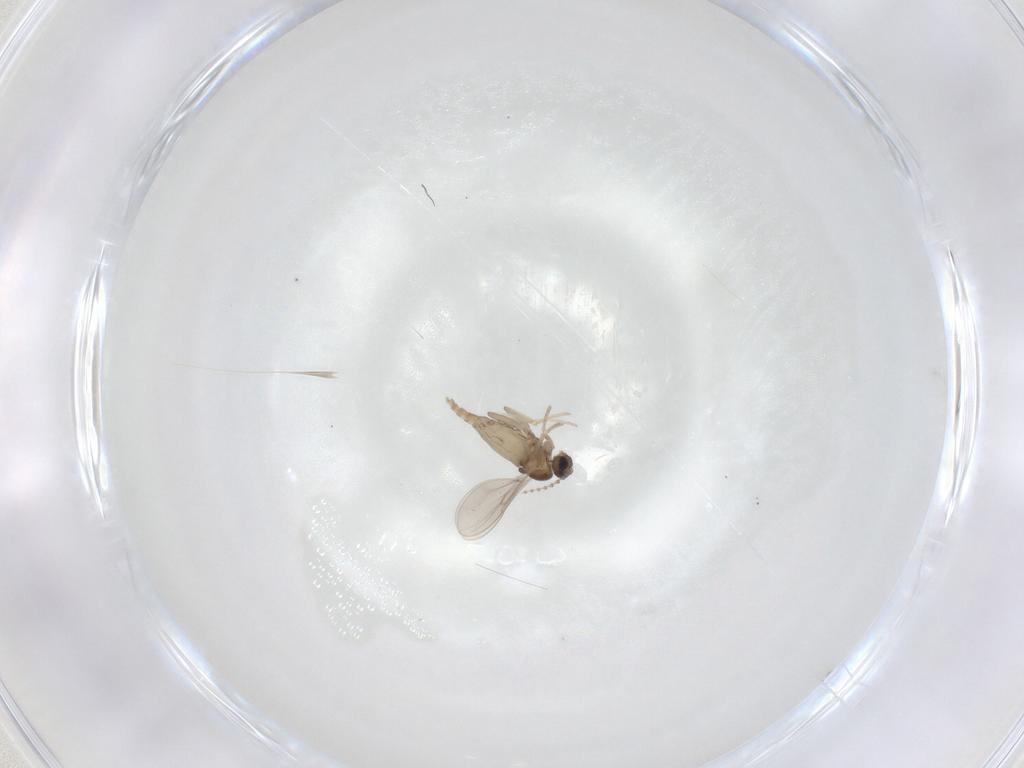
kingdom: Animalia
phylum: Arthropoda
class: Insecta
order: Diptera
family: Cecidomyiidae
